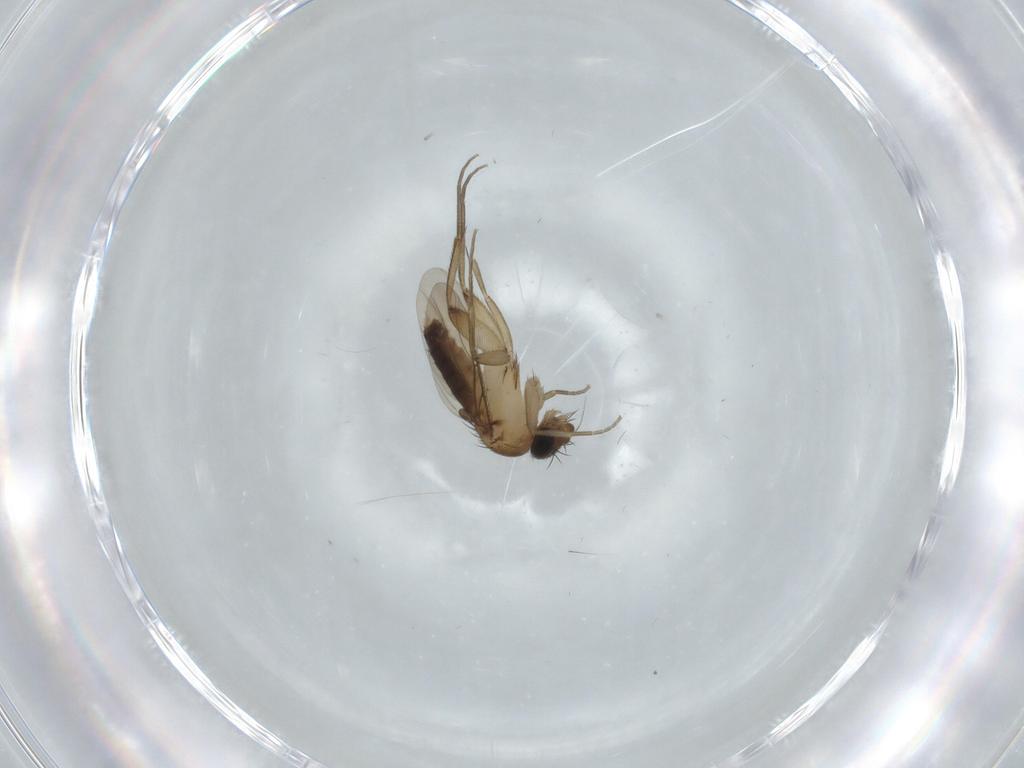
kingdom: Animalia
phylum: Arthropoda
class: Insecta
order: Diptera
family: Phoridae
